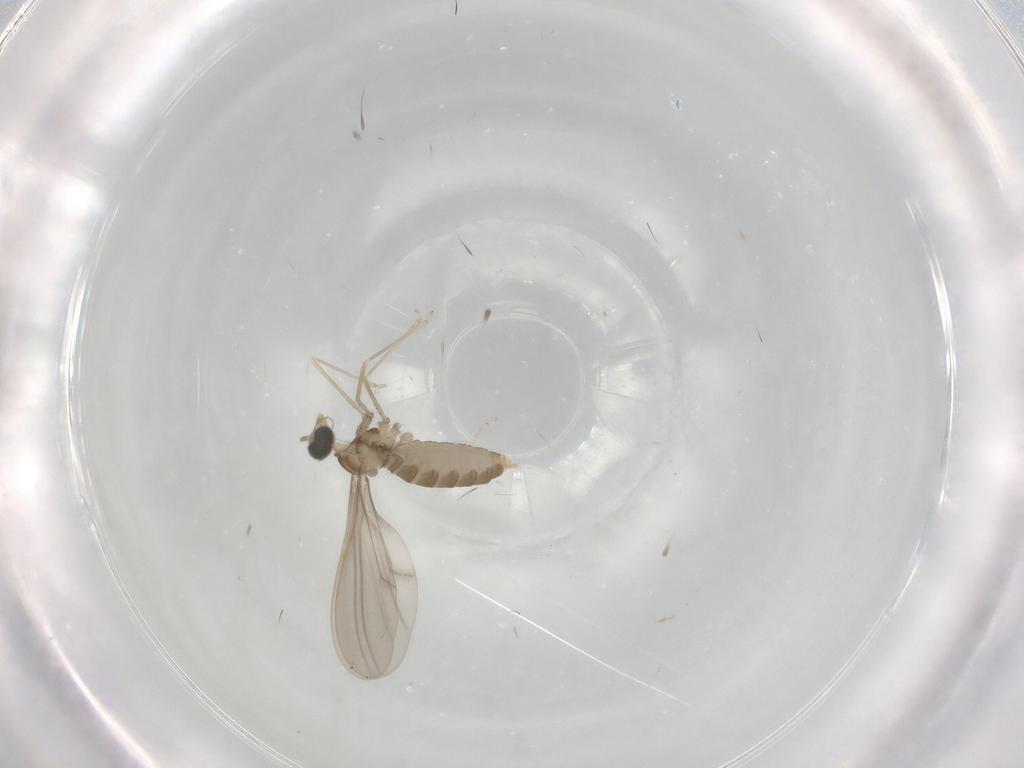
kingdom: Animalia
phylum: Arthropoda
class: Insecta
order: Diptera
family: Cecidomyiidae
